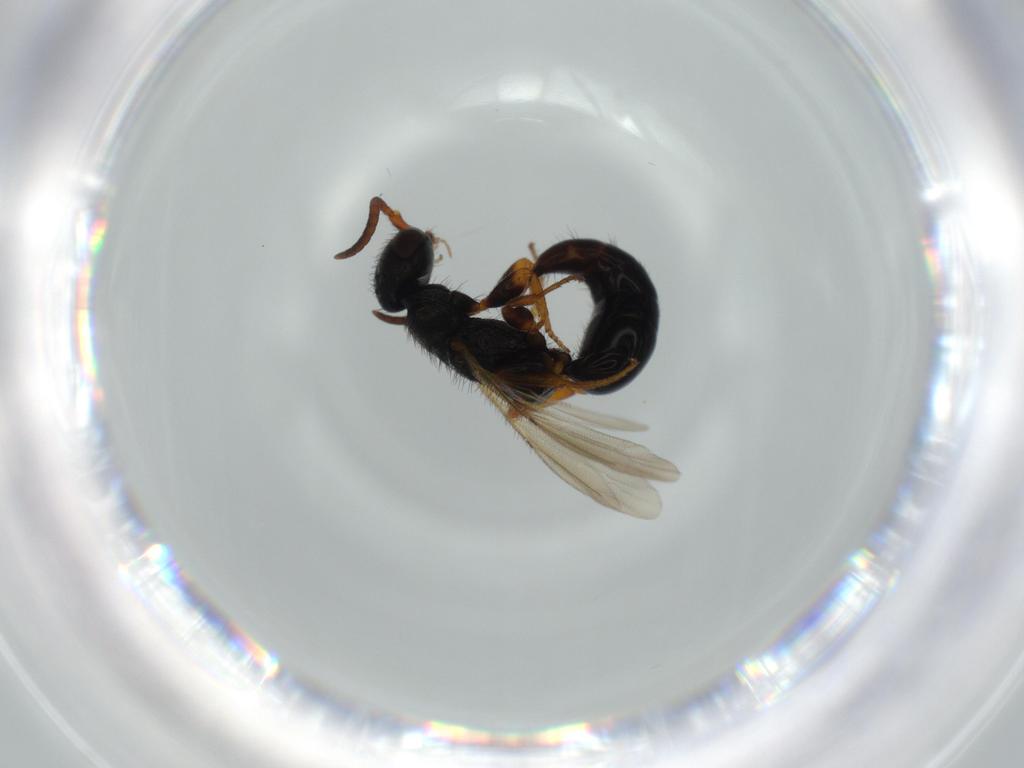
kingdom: Animalia
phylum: Arthropoda
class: Insecta
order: Hymenoptera
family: Bethylidae
